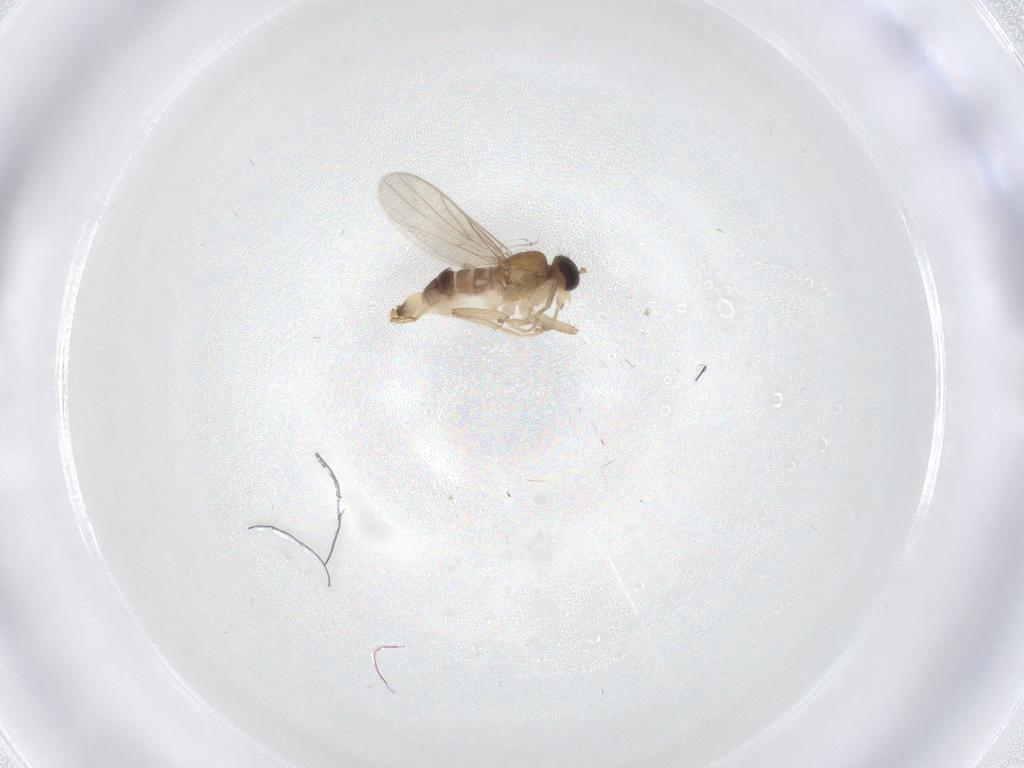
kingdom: Animalia
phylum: Arthropoda
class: Insecta
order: Diptera
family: Hybotidae
